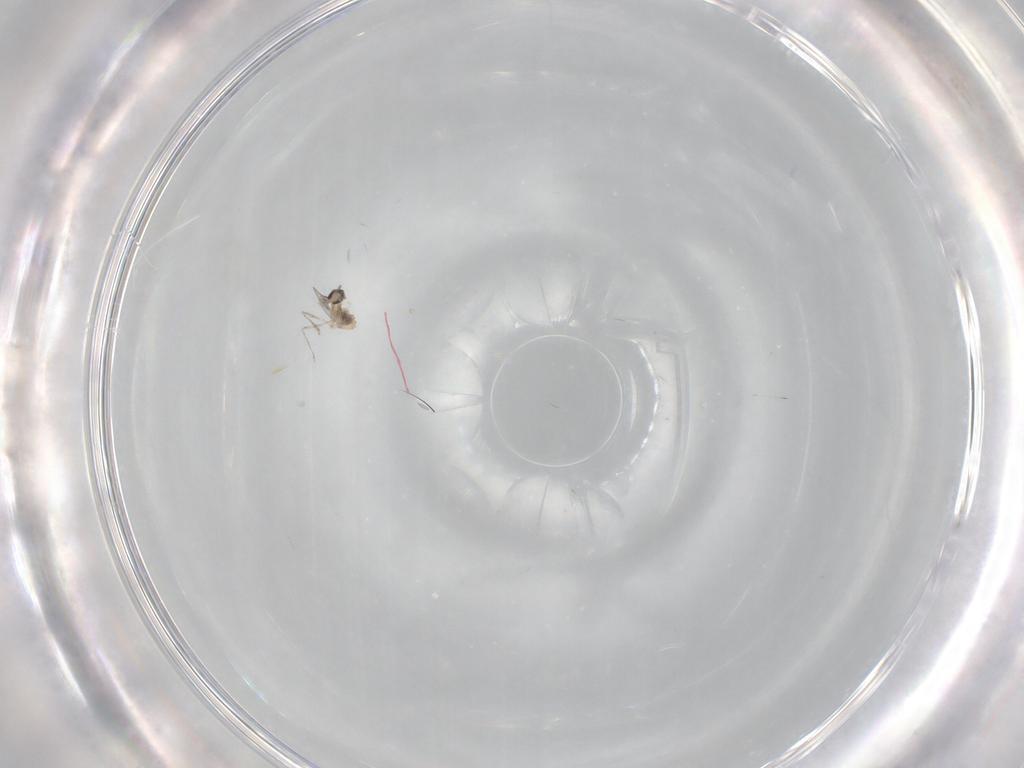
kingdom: Animalia
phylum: Arthropoda
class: Insecta
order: Diptera
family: Cecidomyiidae
